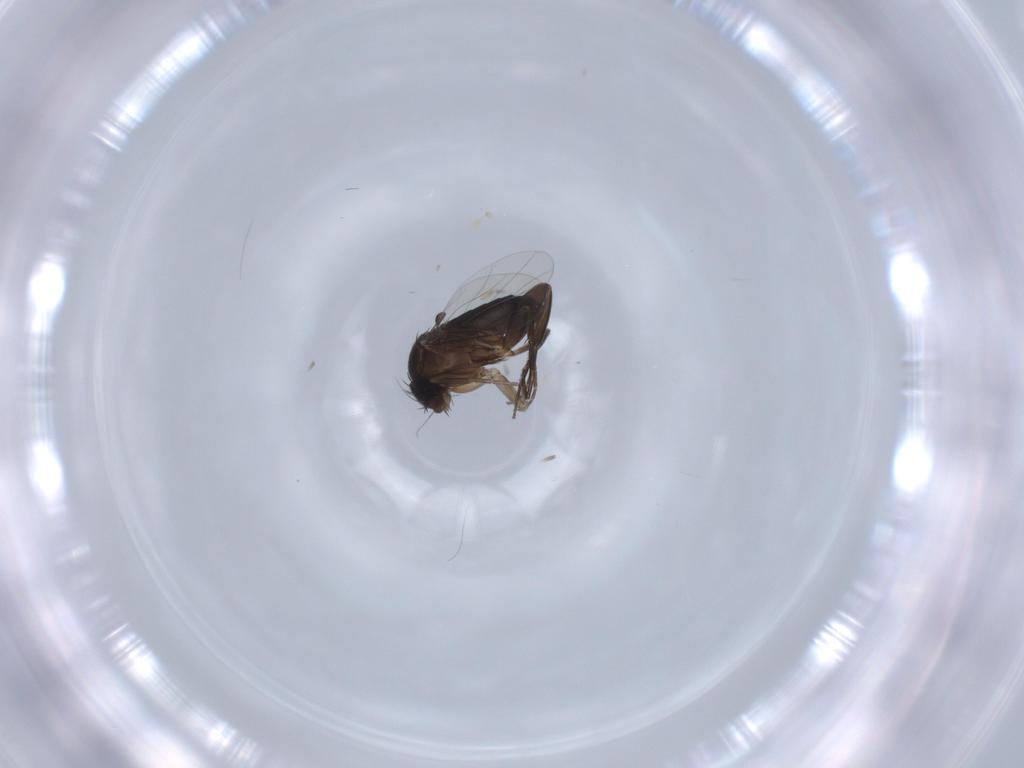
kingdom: Animalia
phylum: Arthropoda
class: Insecta
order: Diptera
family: Phoridae
